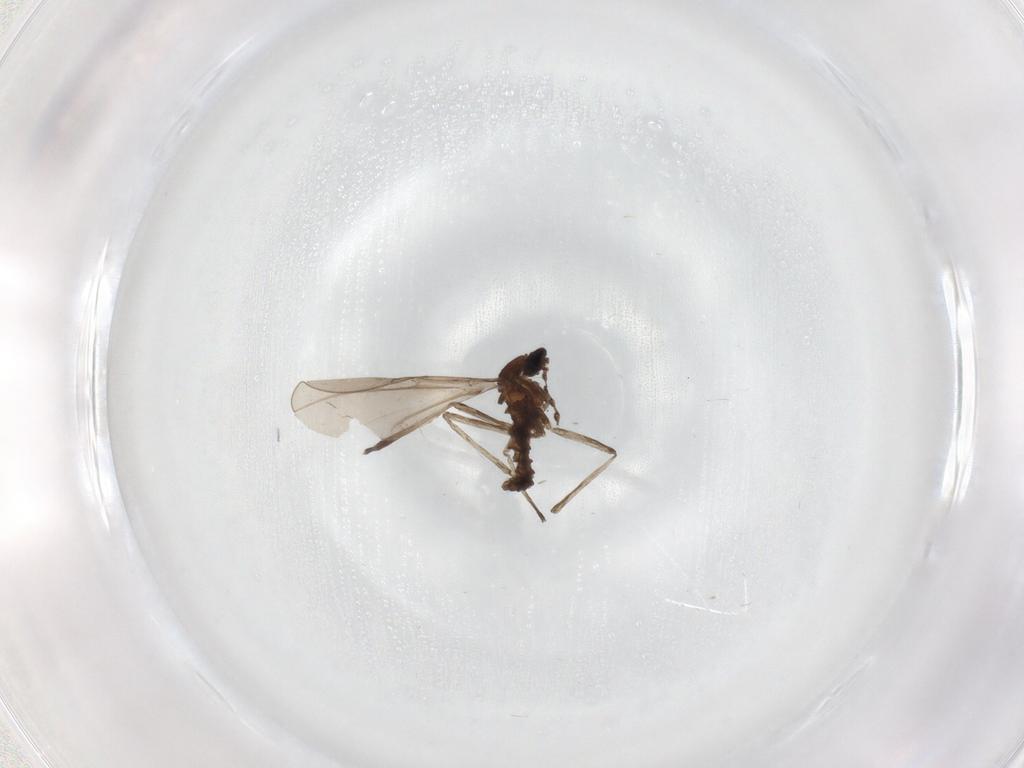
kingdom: Animalia
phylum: Arthropoda
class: Insecta
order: Diptera
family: Cecidomyiidae
